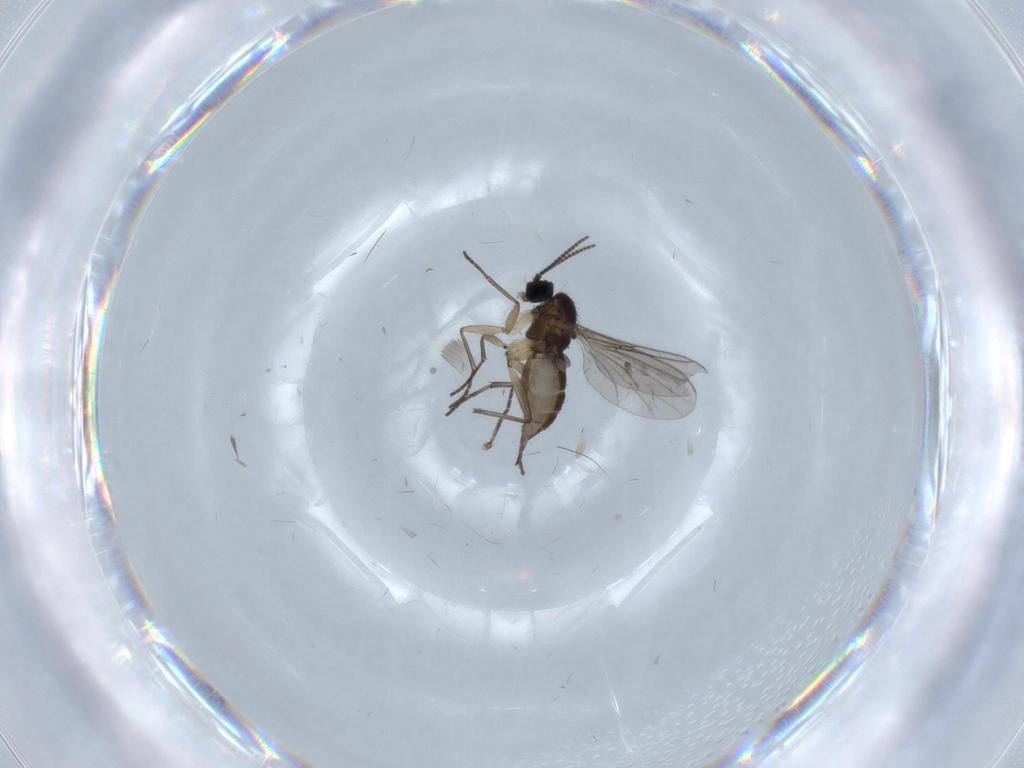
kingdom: Animalia
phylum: Arthropoda
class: Insecta
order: Diptera
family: Sciaridae
